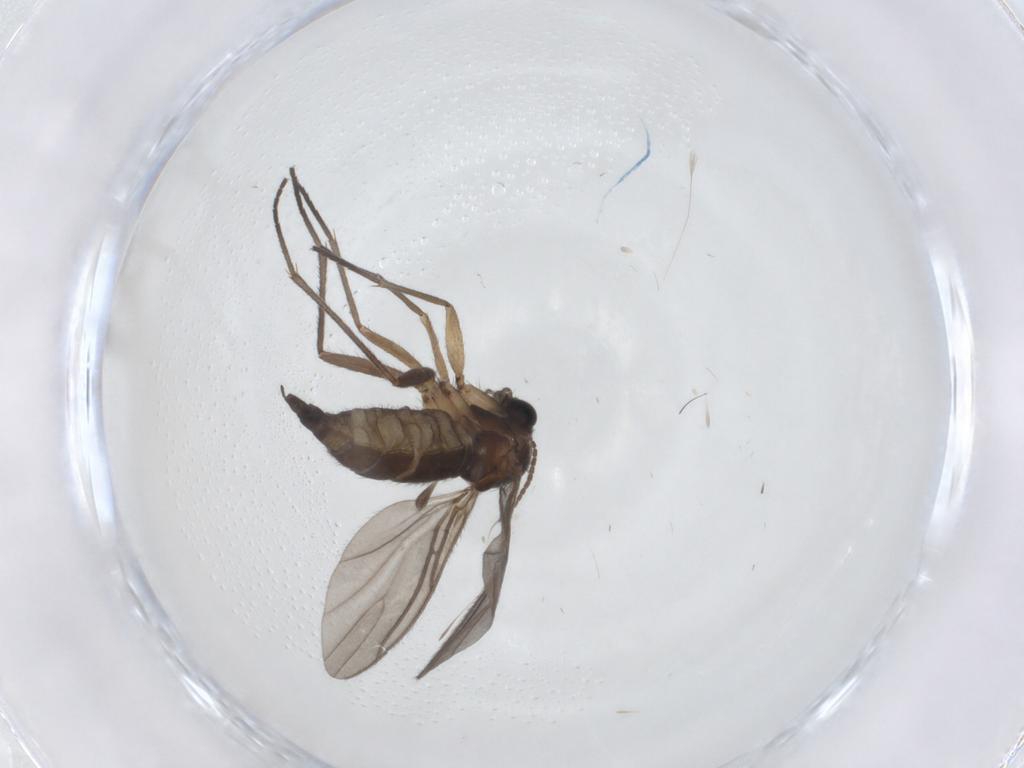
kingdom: Animalia
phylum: Arthropoda
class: Insecta
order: Diptera
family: Sciaridae
